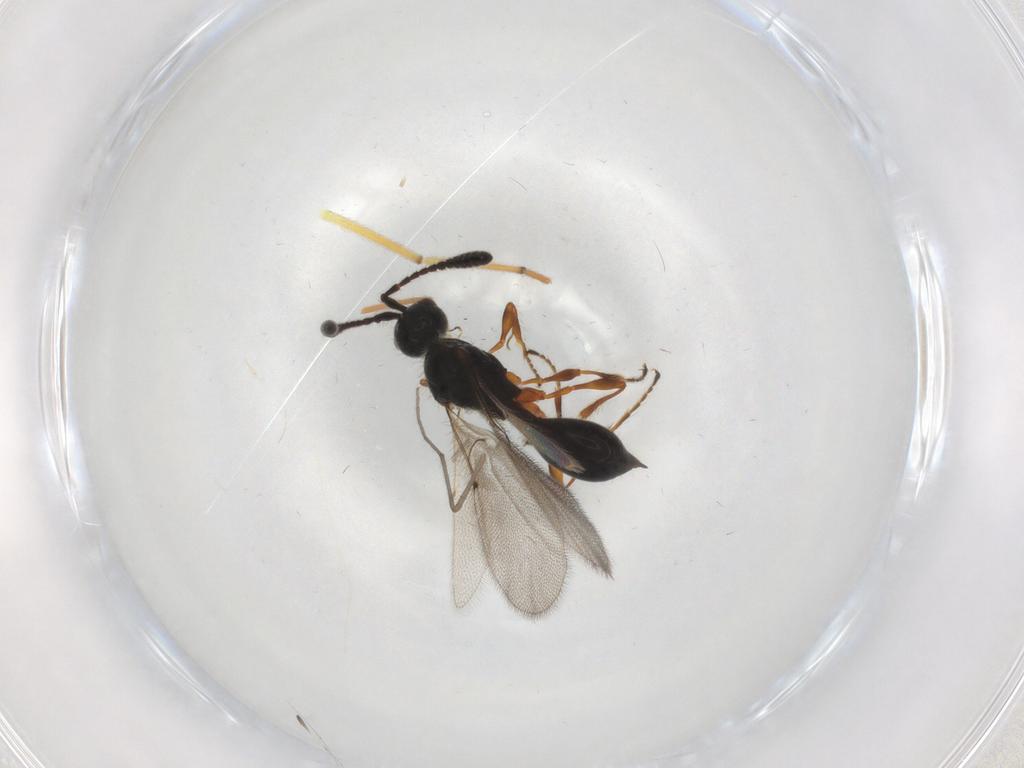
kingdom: Animalia
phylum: Arthropoda
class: Insecta
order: Hymenoptera
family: Diapriidae
